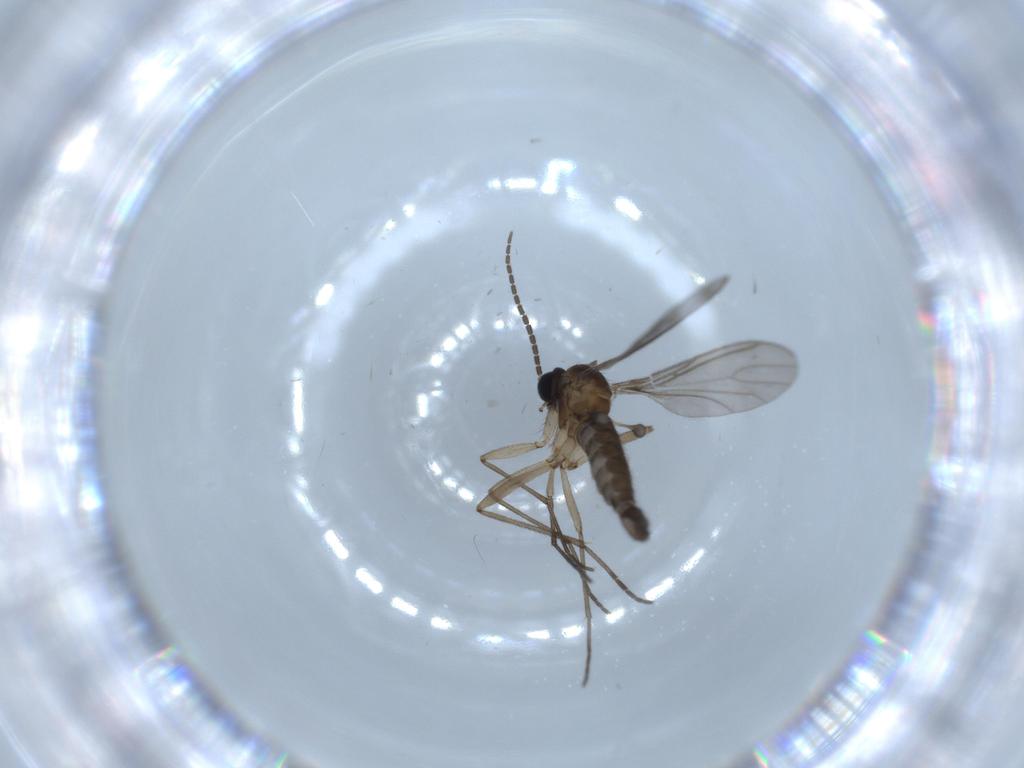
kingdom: Animalia
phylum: Arthropoda
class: Insecta
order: Diptera
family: Sciaridae
